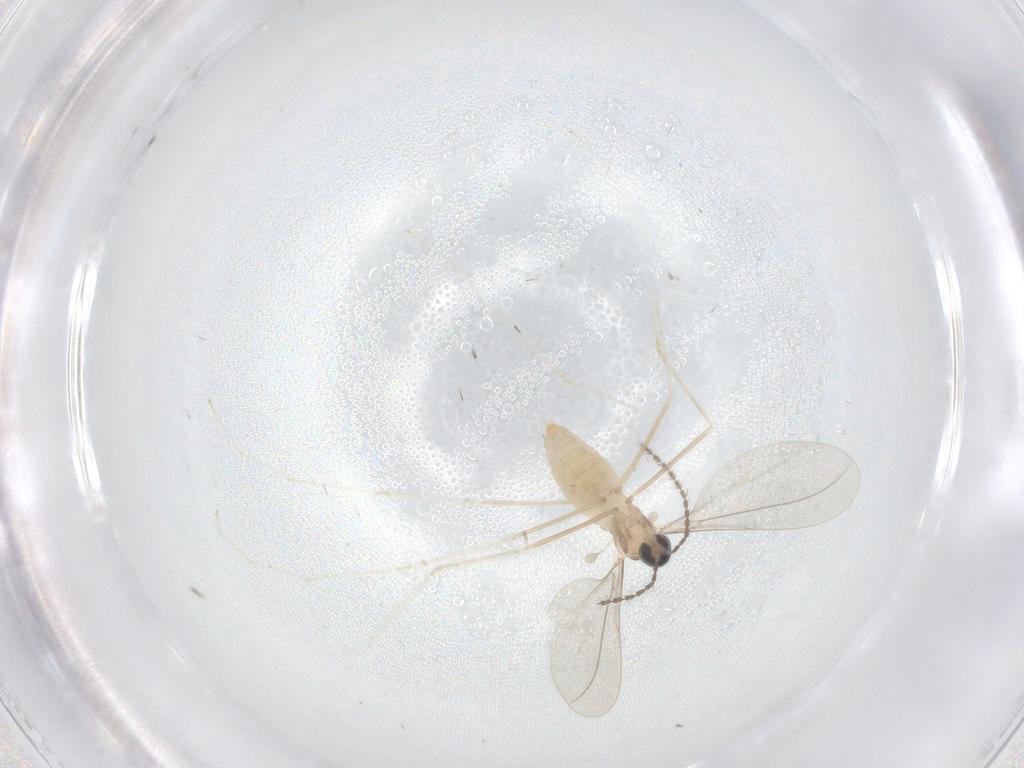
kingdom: Animalia
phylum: Arthropoda
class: Insecta
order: Diptera
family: Cecidomyiidae
